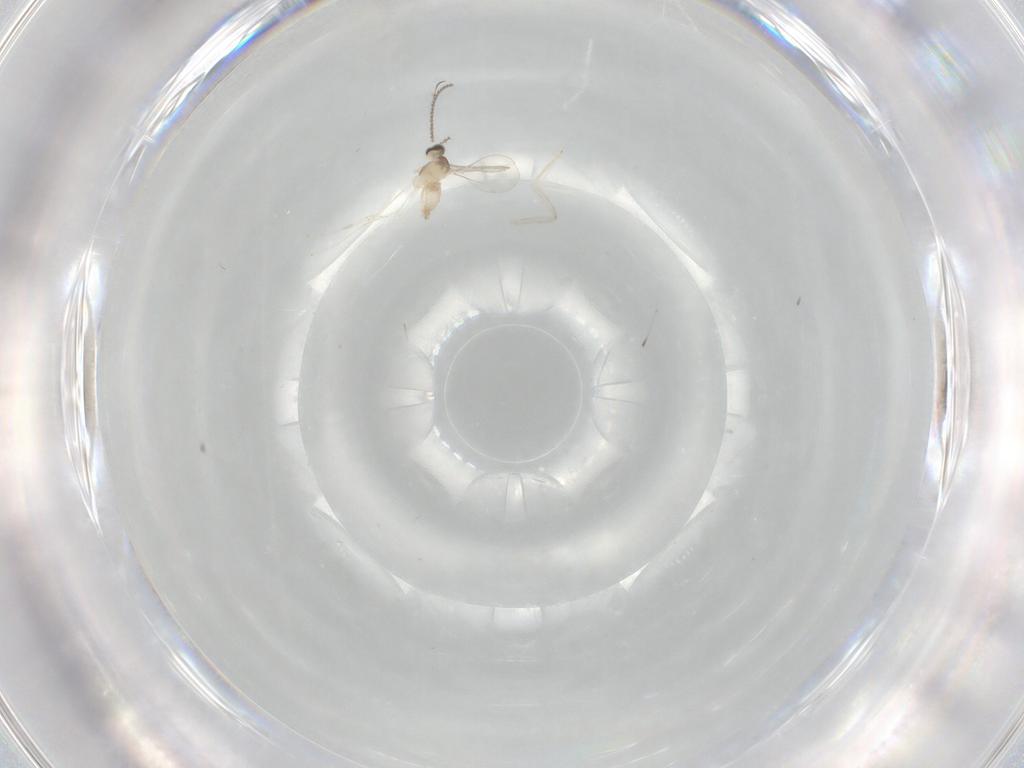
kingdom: Animalia
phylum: Arthropoda
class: Insecta
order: Diptera
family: Cecidomyiidae
